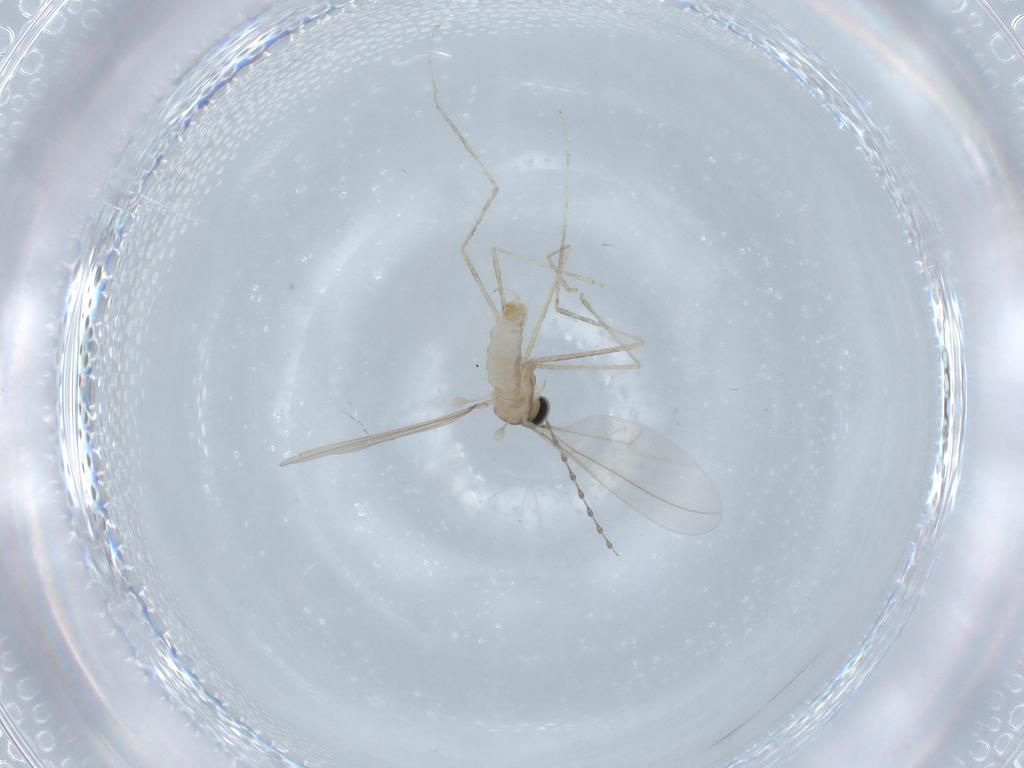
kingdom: Animalia
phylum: Arthropoda
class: Insecta
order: Diptera
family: Cecidomyiidae
